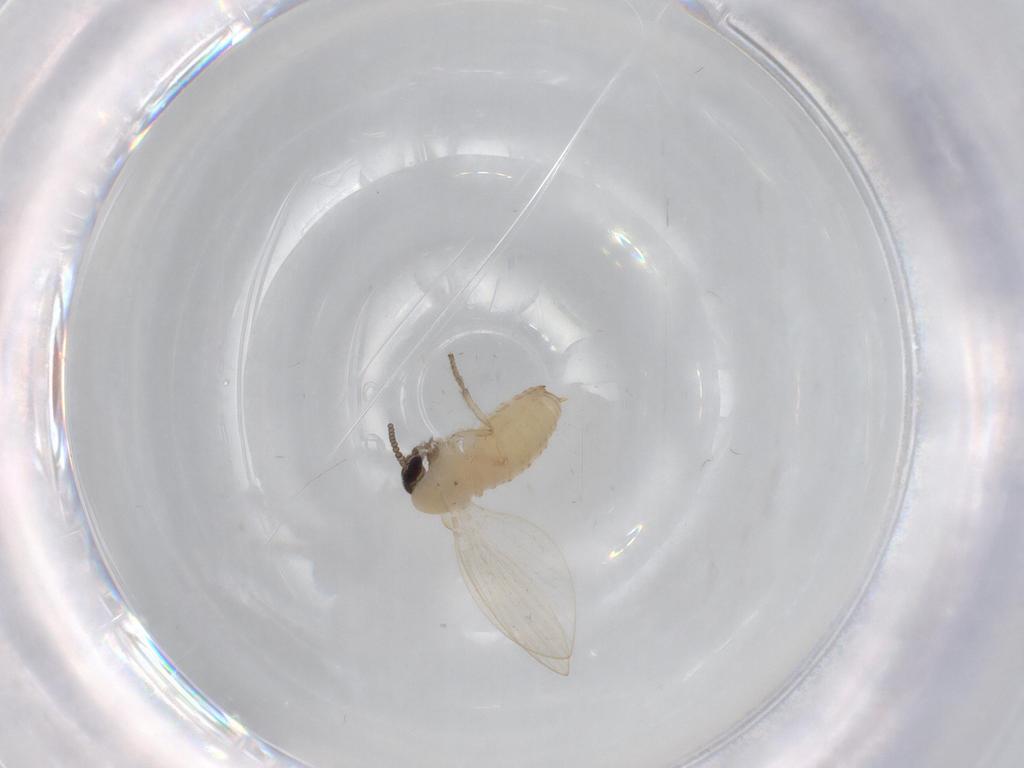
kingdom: Animalia
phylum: Arthropoda
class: Insecta
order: Diptera
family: Psychodidae
